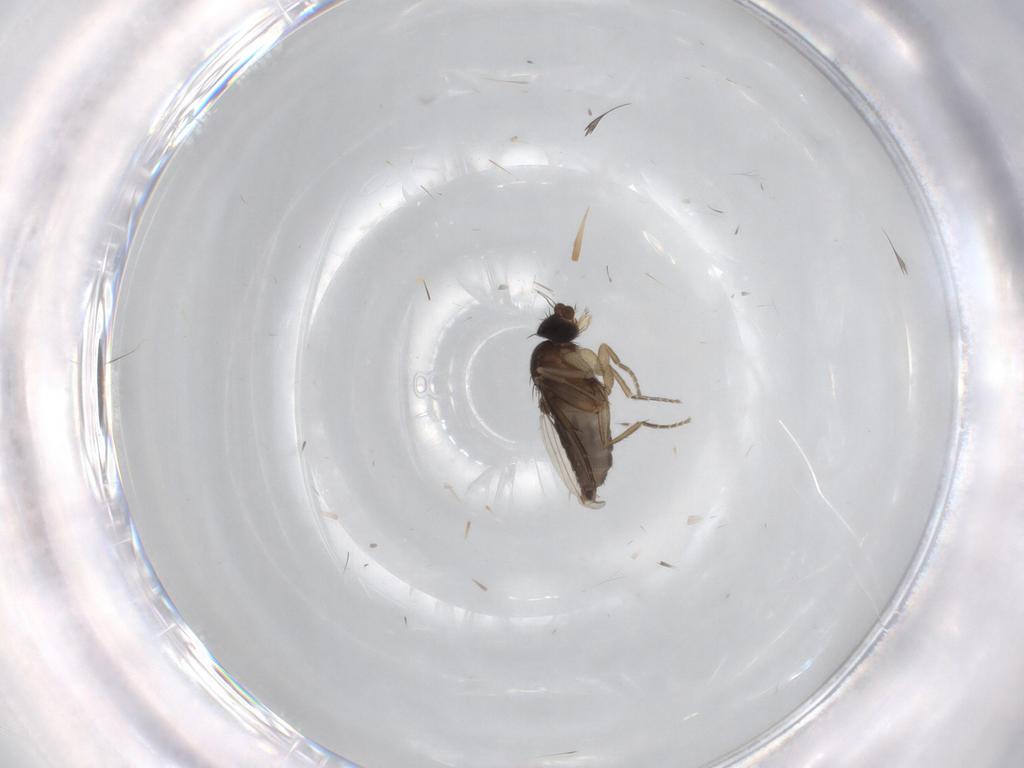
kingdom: Animalia
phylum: Arthropoda
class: Insecta
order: Diptera
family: Phoridae
